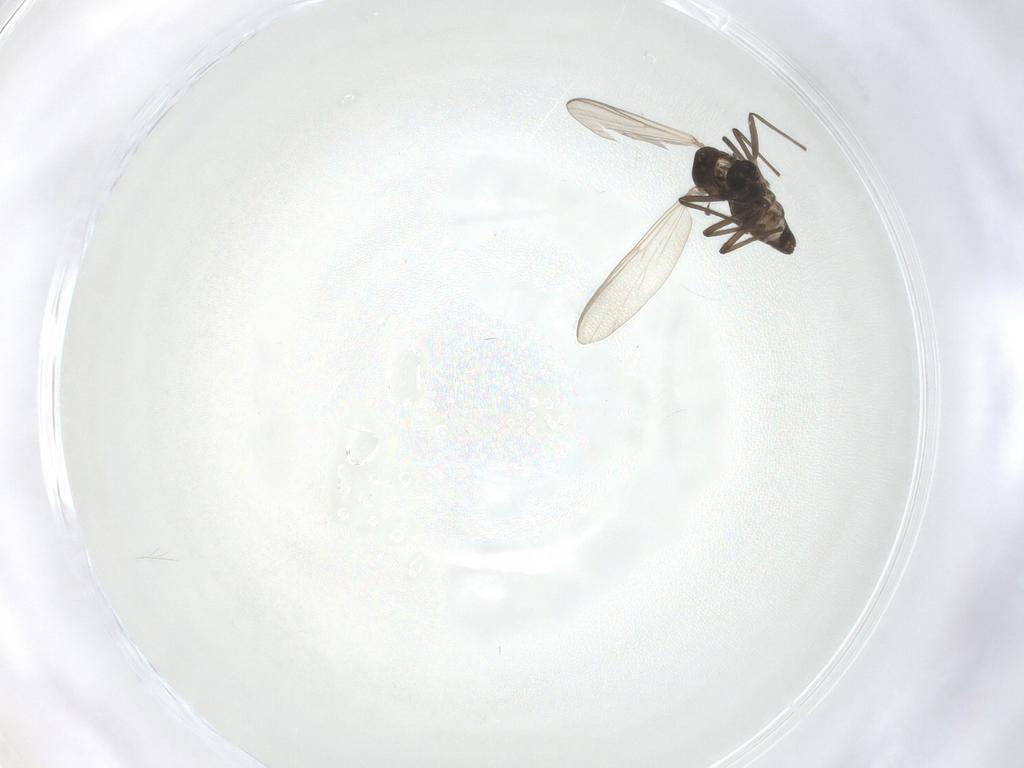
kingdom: Animalia
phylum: Arthropoda
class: Insecta
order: Diptera
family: Chironomidae
